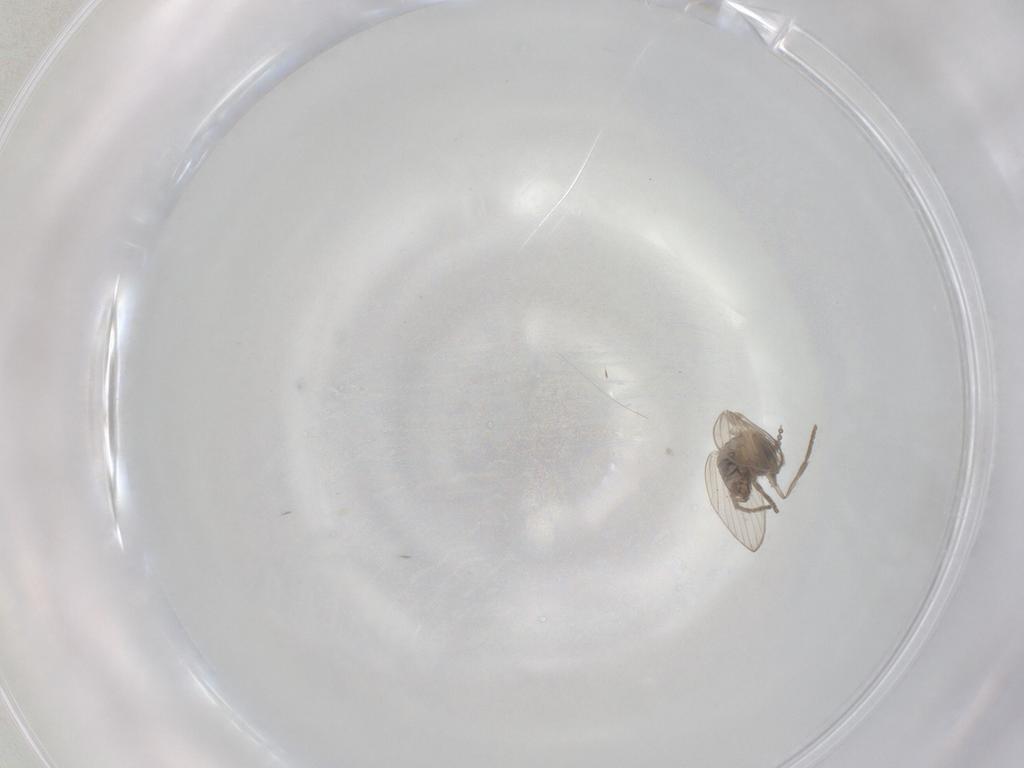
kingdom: Animalia
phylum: Arthropoda
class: Insecta
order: Diptera
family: Psychodidae
